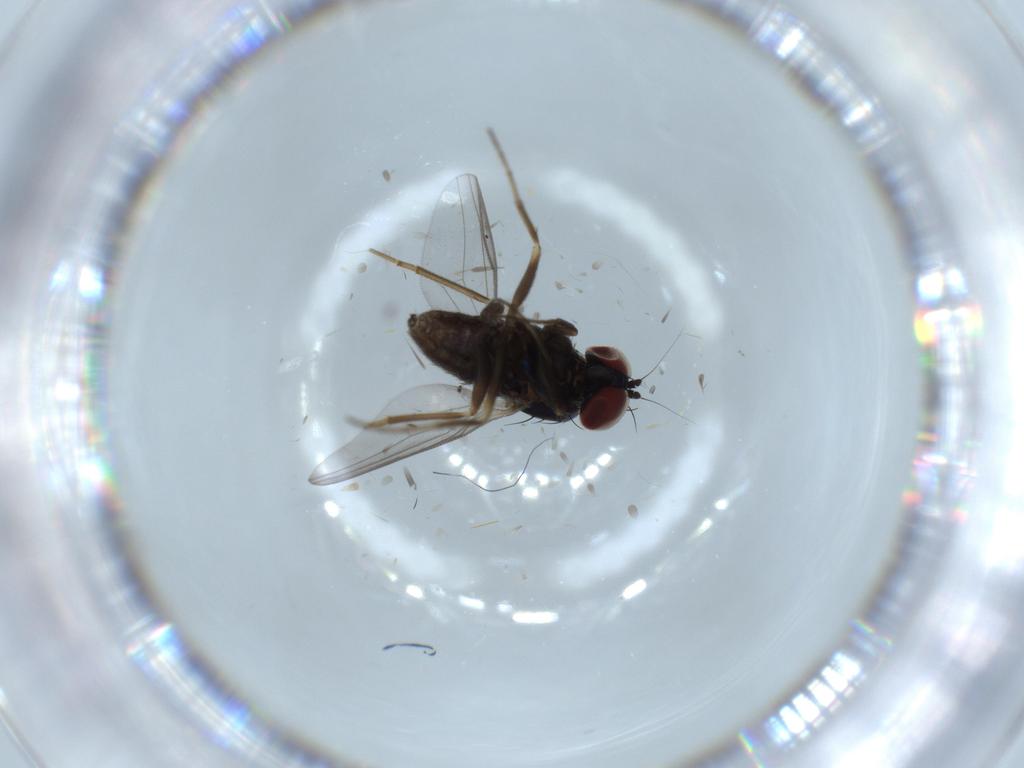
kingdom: Animalia
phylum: Arthropoda
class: Insecta
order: Diptera
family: Dolichopodidae
